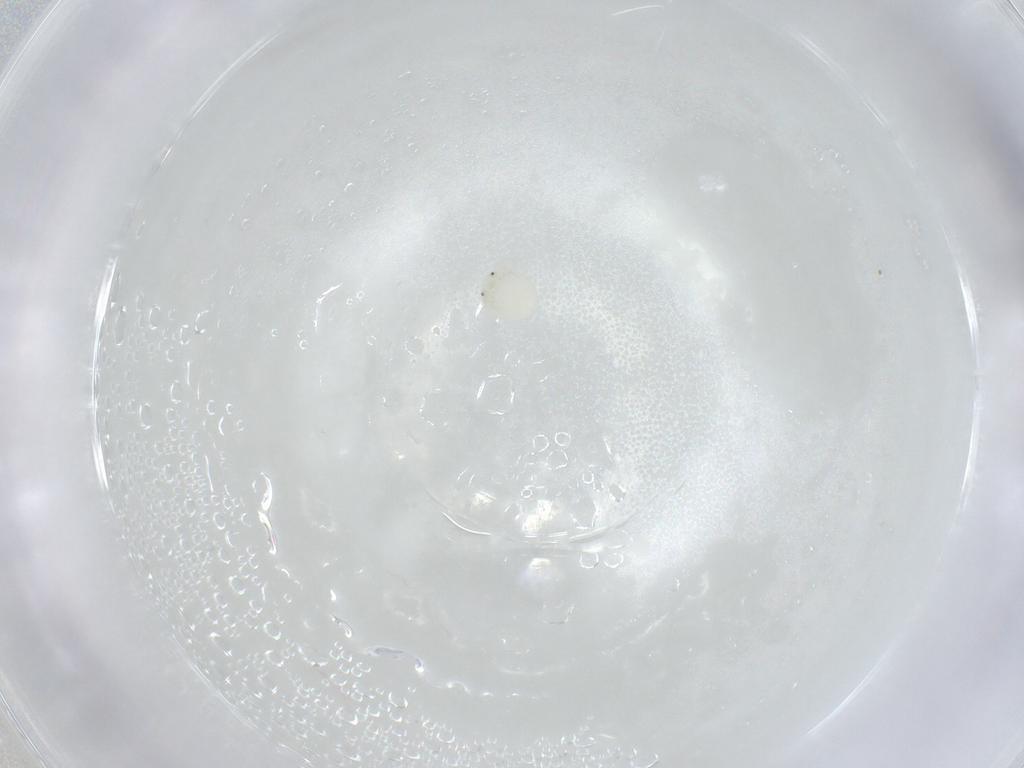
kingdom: Animalia
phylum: Arthropoda
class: Arachnida
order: Trombidiformes
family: Arrenuridae
